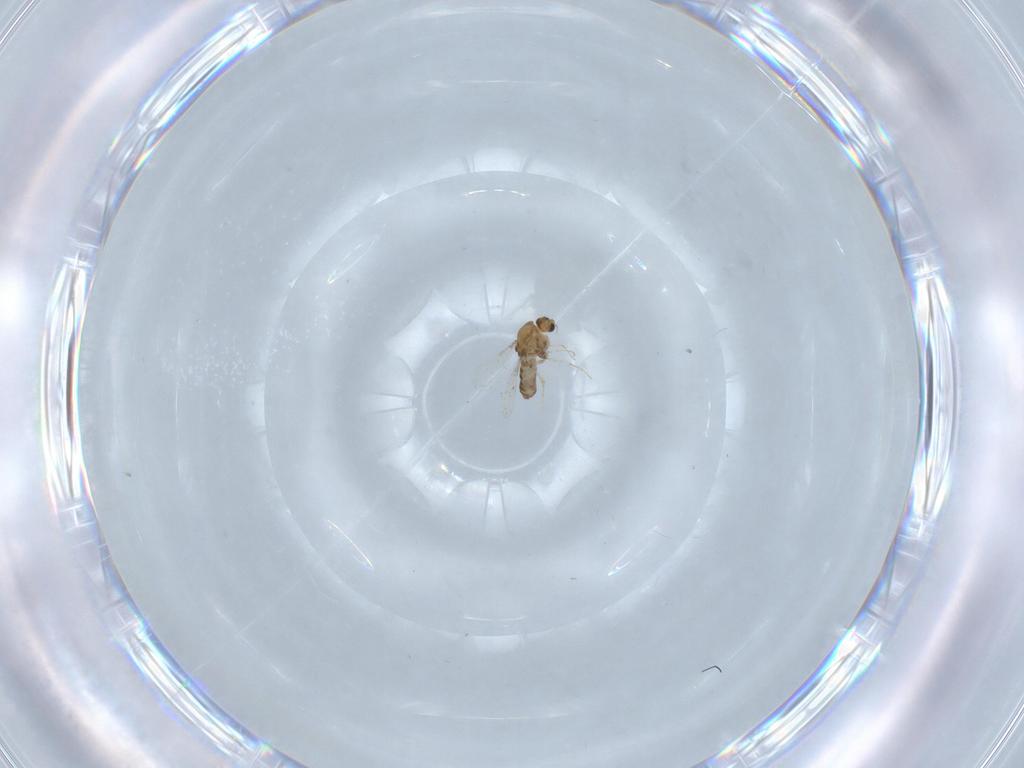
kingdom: Animalia
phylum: Arthropoda
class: Insecta
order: Diptera
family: Chironomidae
